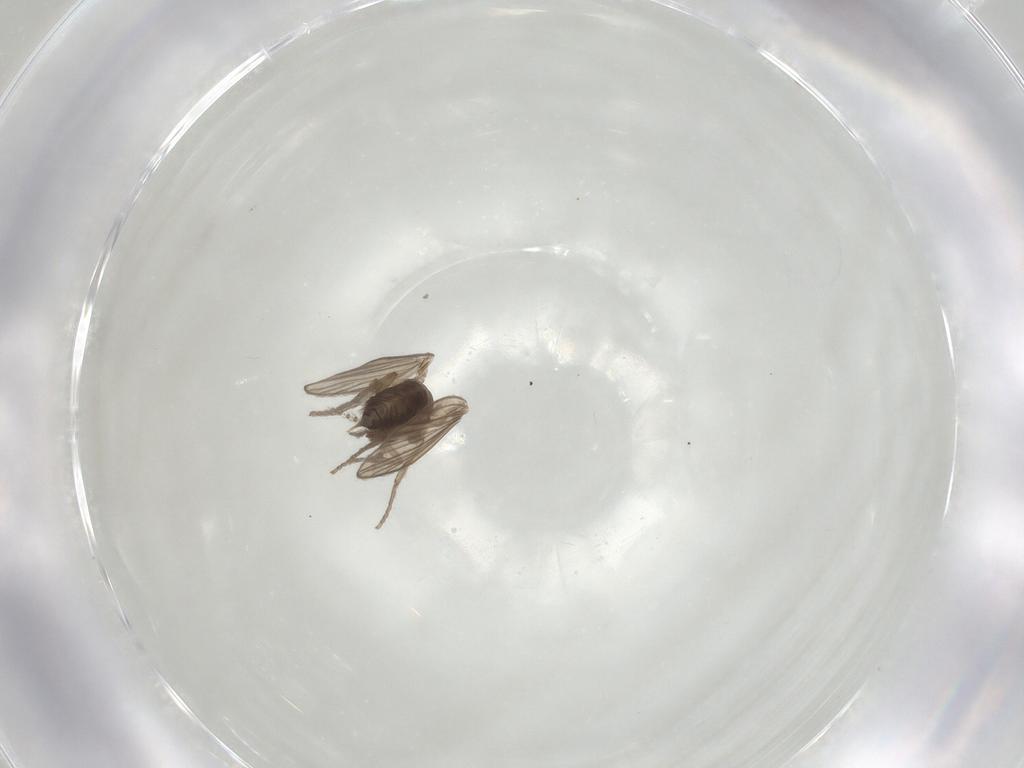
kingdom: Animalia
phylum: Arthropoda
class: Insecta
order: Diptera
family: Psychodidae
